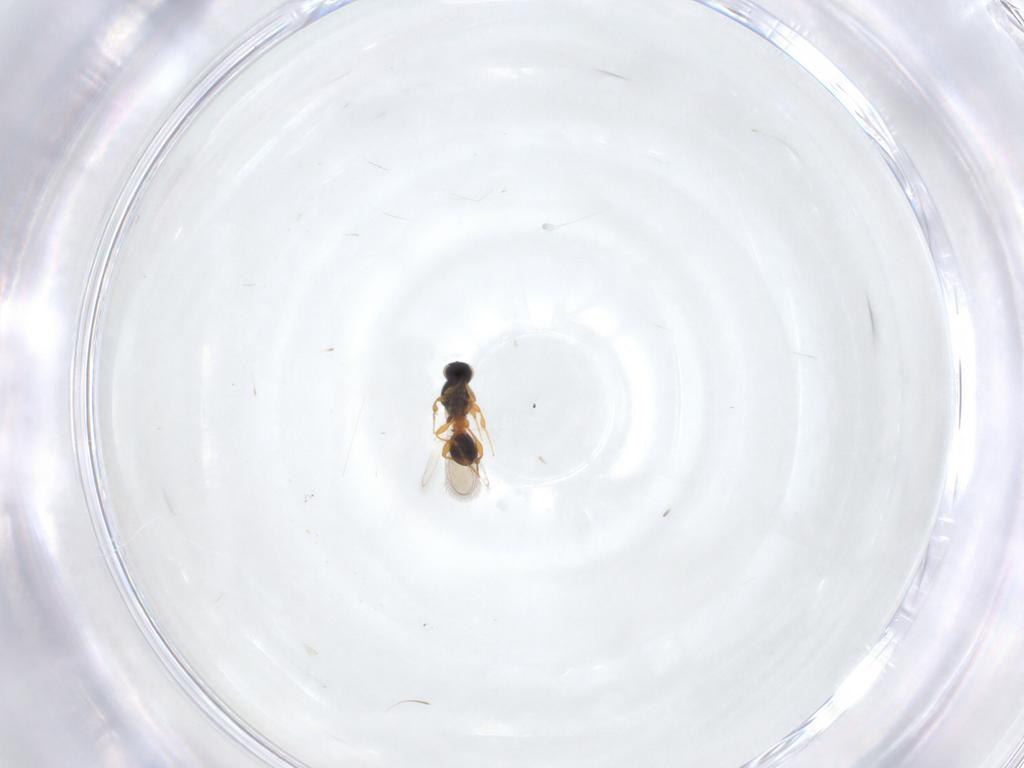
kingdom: Animalia
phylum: Arthropoda
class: Insecta
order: Hymenoptera
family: Platygastridae
